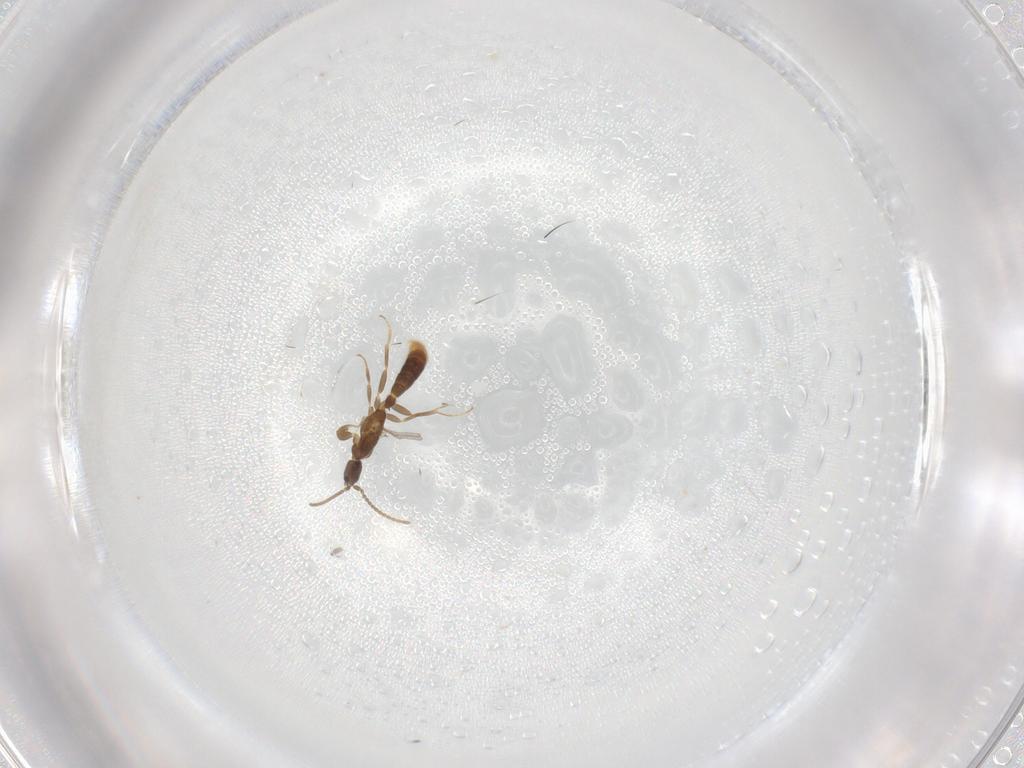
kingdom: Animalia
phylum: Arthropoda
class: Insecta
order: Hymenoptera
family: Formicidae
